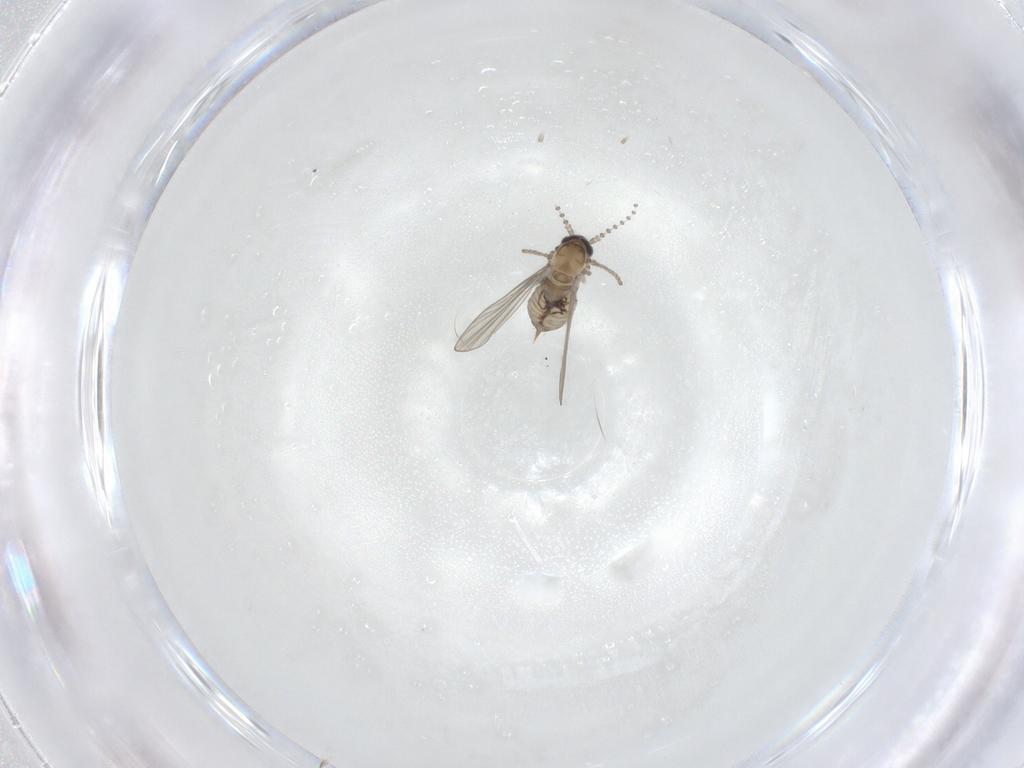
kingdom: Animalia
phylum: Arthropoda
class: Insecta
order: Diptera
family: Psychodidae
